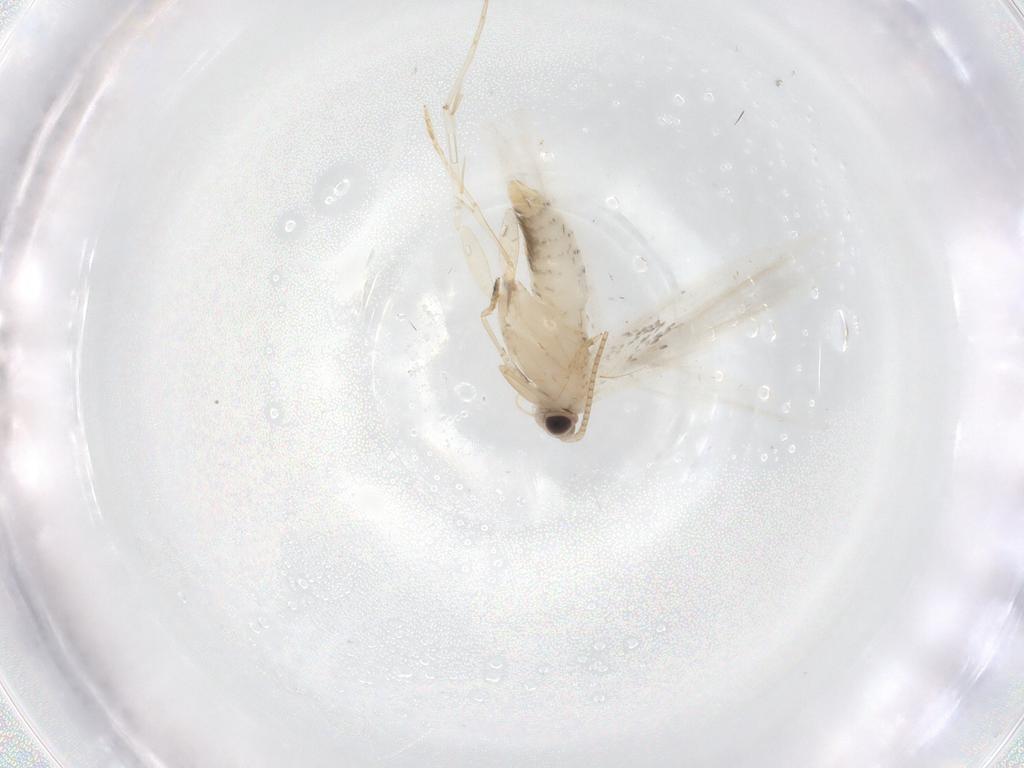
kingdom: Animalia
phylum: Arthropoda
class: Insecta
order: Lepidoptera
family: Tineidae
